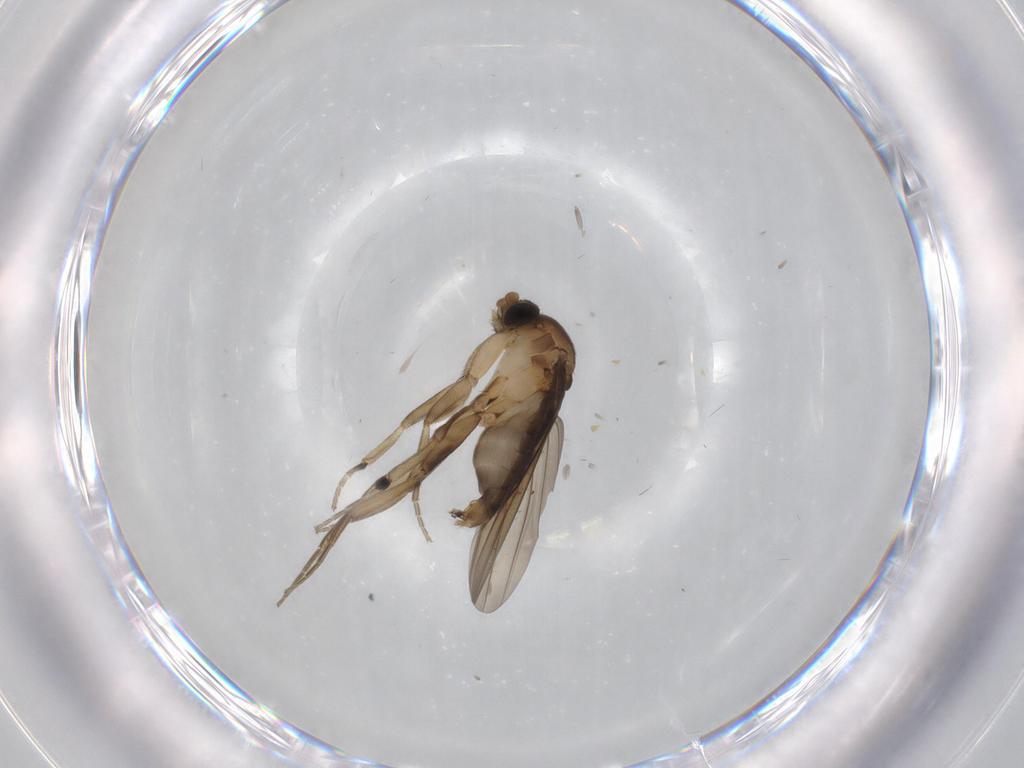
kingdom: Animalia
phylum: Arthropoda
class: Insecta
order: Diptera
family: Phoridae
